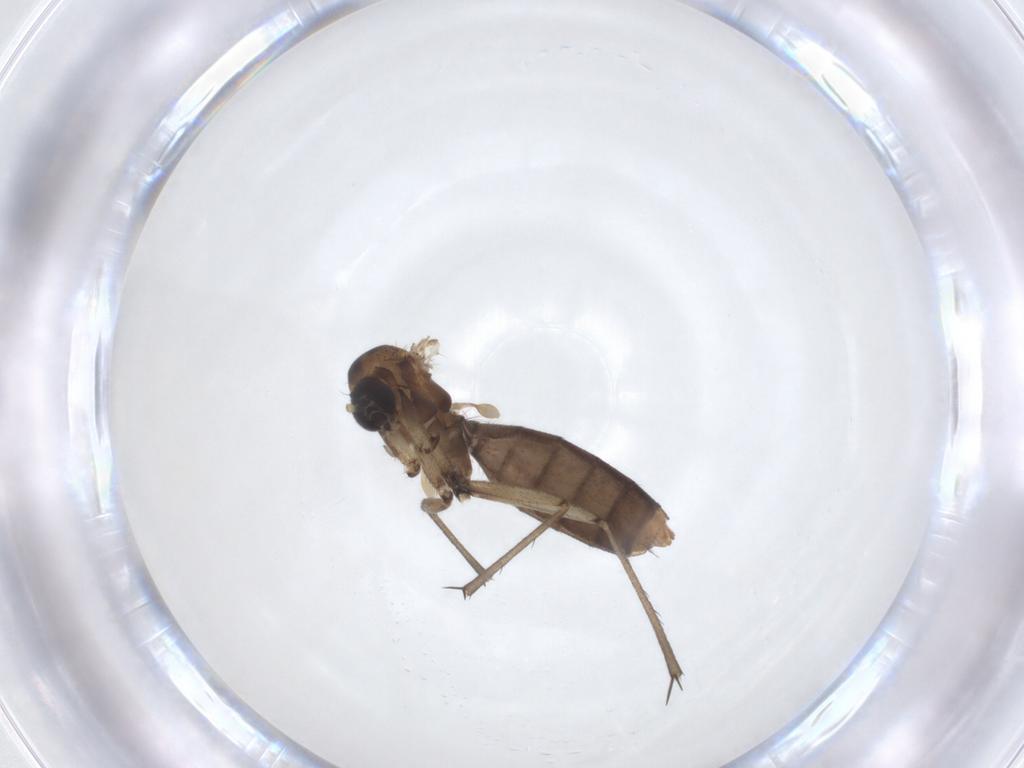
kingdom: Animalia
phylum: Arthropoda
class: Insecta
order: Diptera
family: Mycetophilidae
